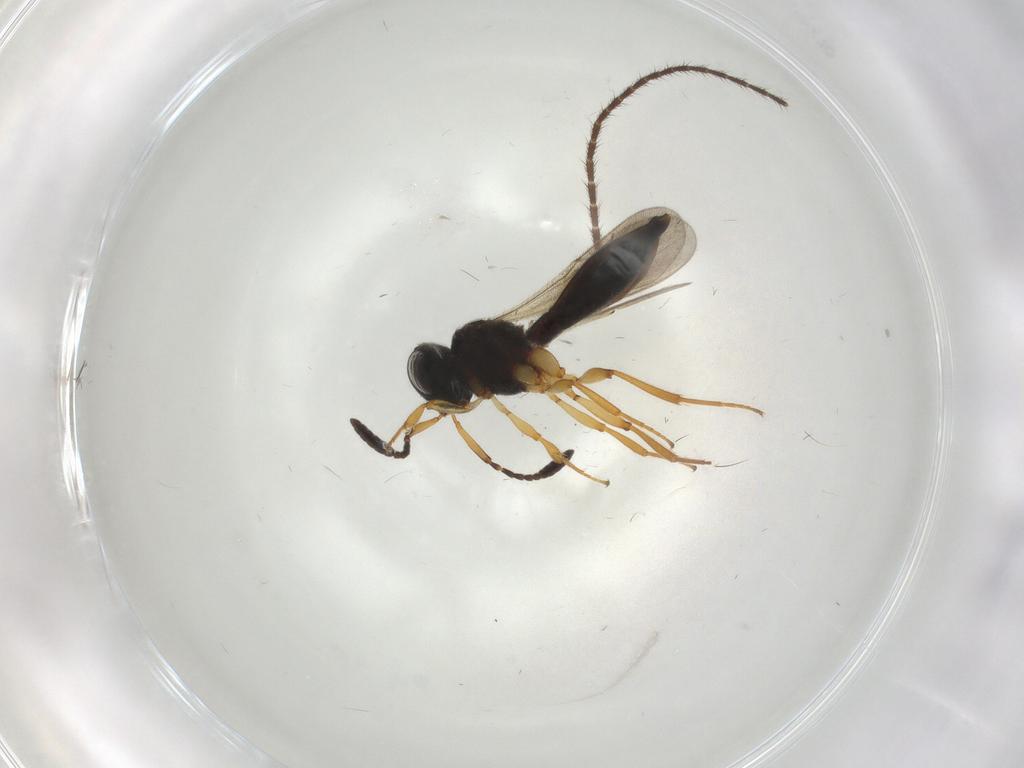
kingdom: Animalia
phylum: Arthropoda
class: Insecta
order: Hymenoptera
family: Scelionidae
